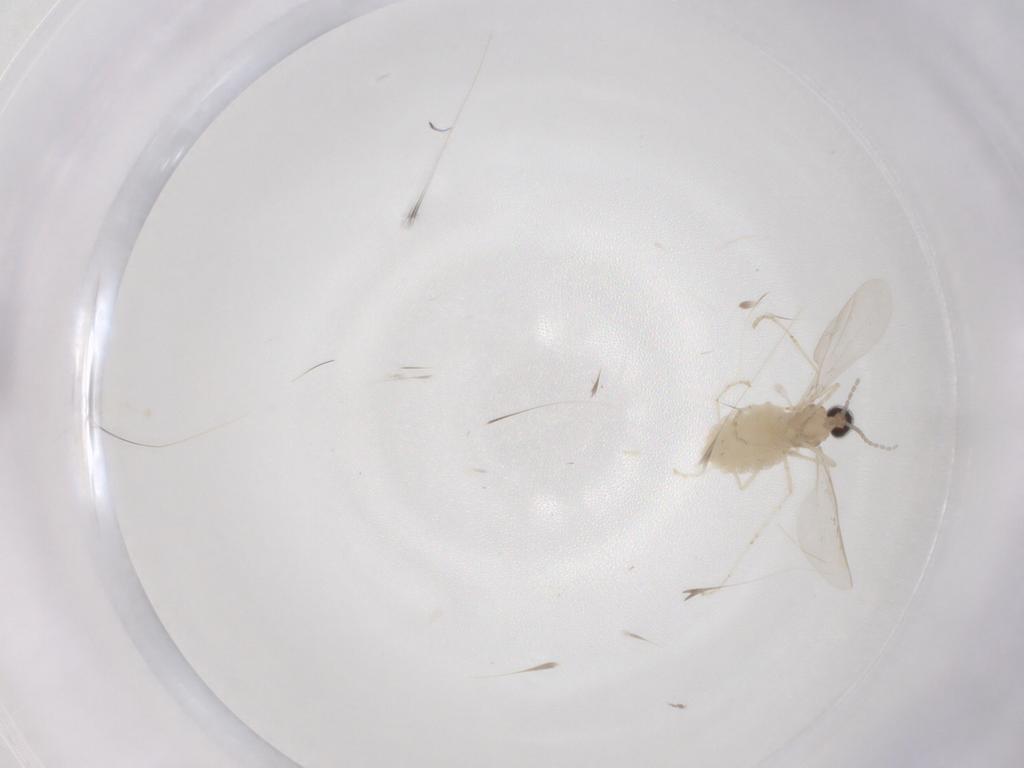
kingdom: Animalia
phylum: Arthropoda
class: Insecta
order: Diptera
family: Cecidomyiidae
